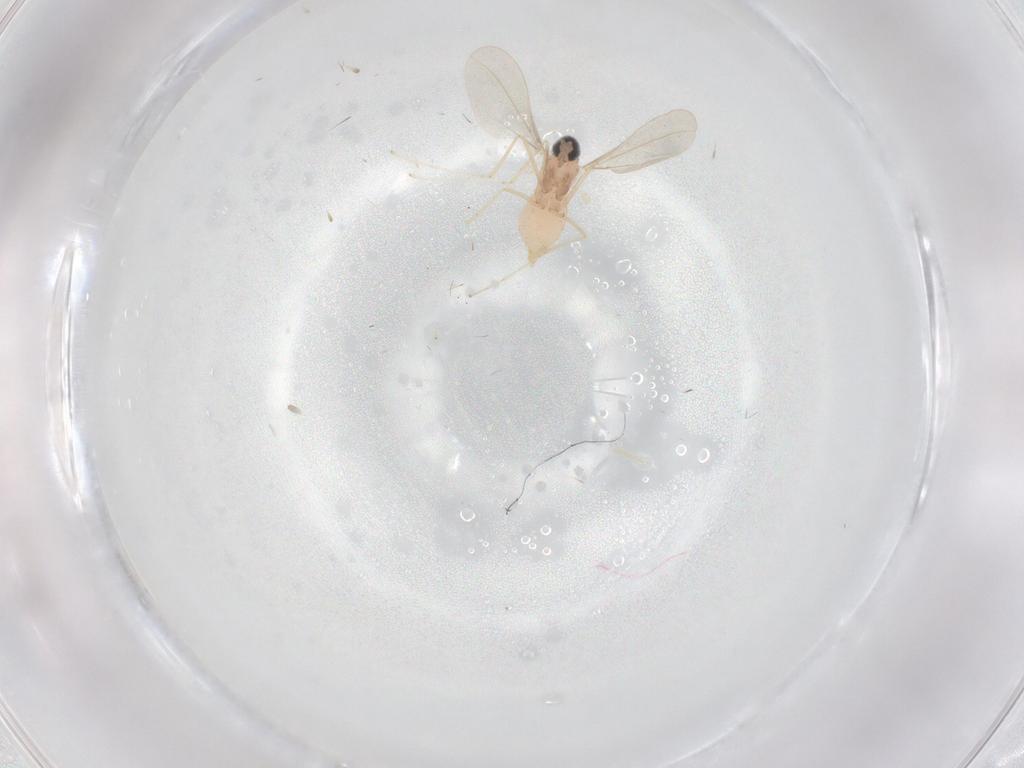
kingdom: Animalia
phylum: Arthropoda
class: Insecta
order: Diptera
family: Cecidomyiidae
